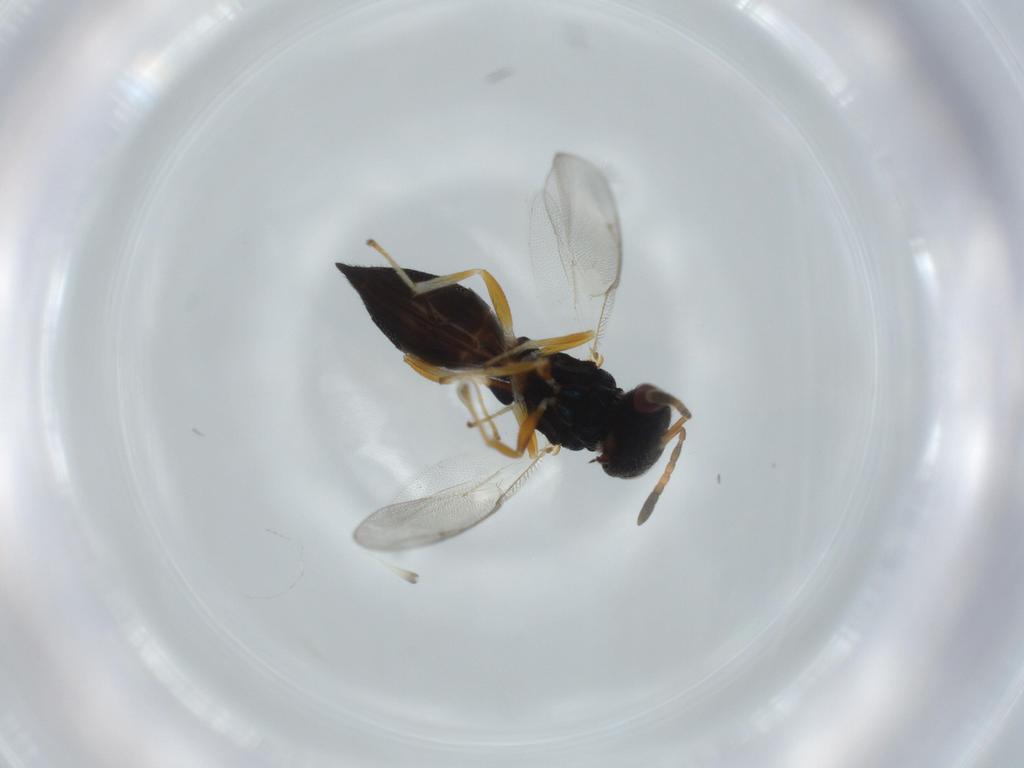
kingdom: Animalia
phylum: Arthropoda
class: Insecta
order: Hymenoptera
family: Pteromalidae
